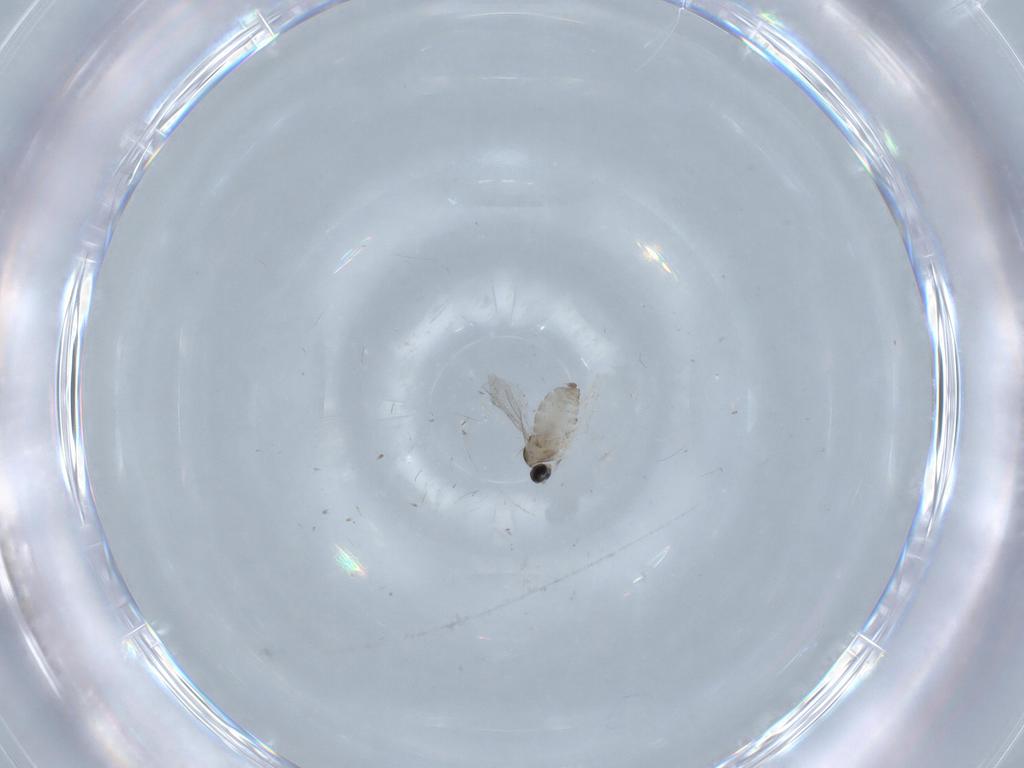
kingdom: Animalia
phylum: Arthropoda
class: Insecta
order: Diptera
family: Cecidomyiidae
